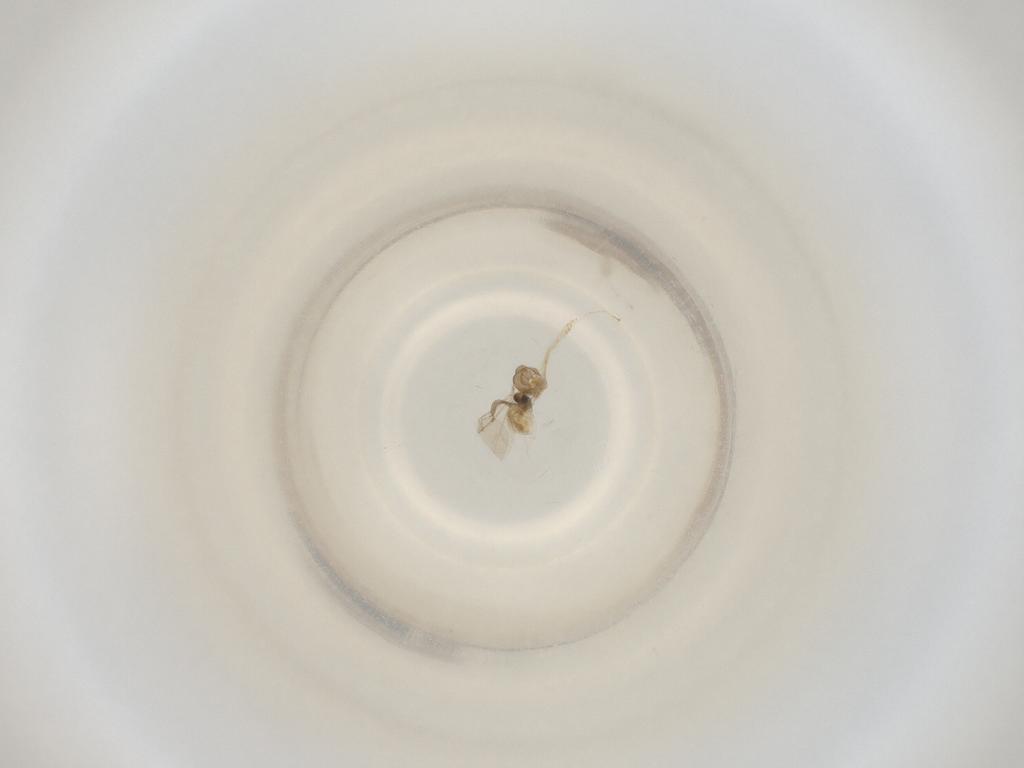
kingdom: Animalia
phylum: Arthropoda
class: Insecta
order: Diptera
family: Cecidomyiidae
